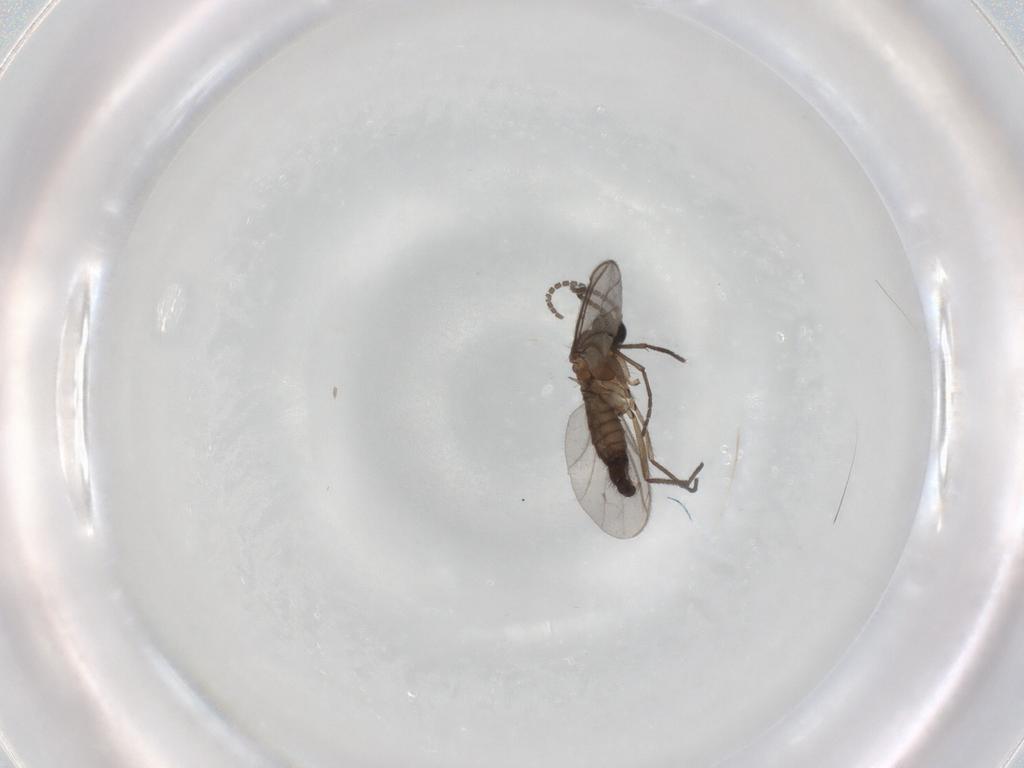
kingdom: Animalia
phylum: Arthropoda
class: Insecta
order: Diptera
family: Sciaridae
